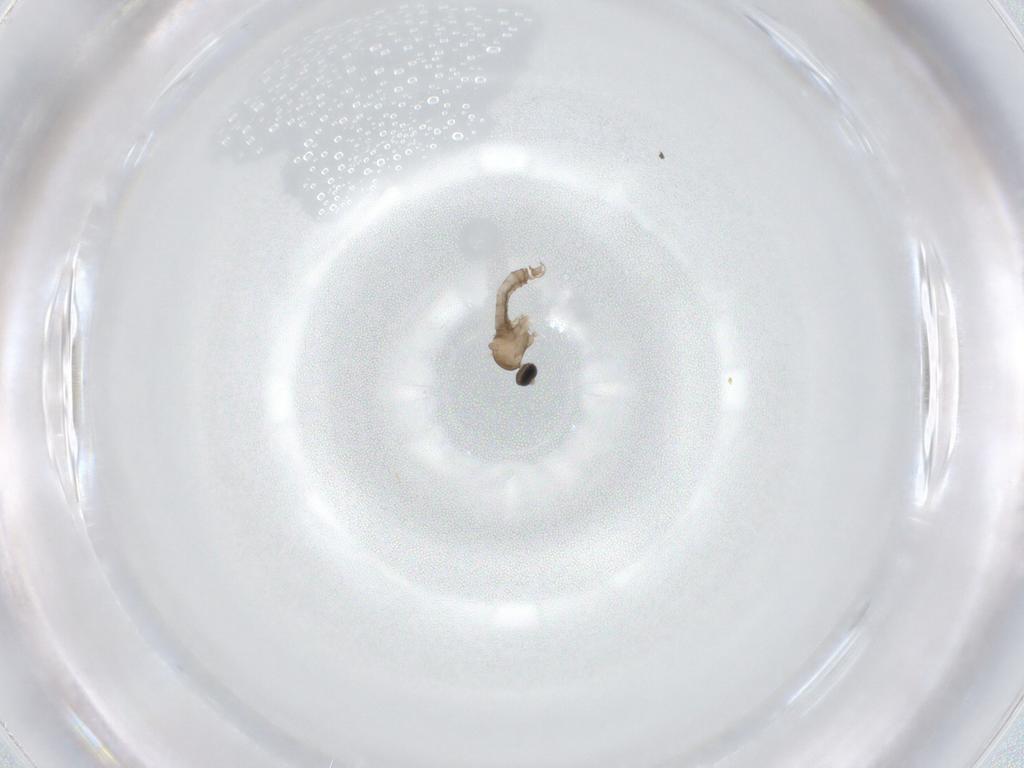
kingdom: Animalia
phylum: Arthropoda
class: Insecta
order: Diptera
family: Cecidomyiidae
